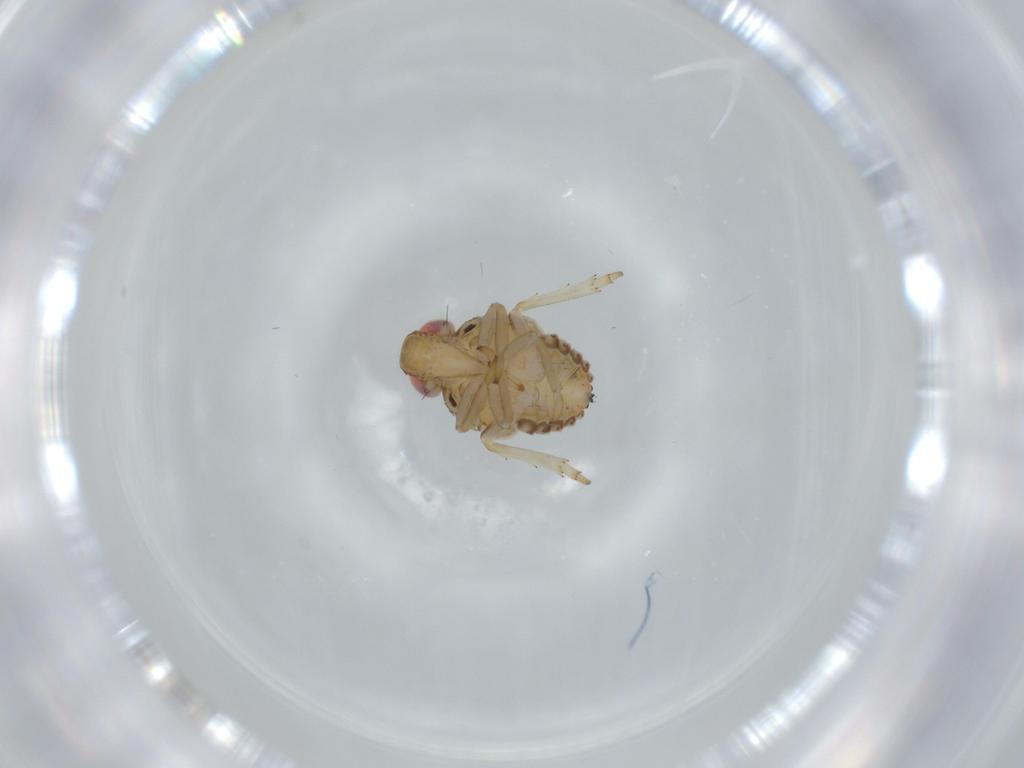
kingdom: Animalia
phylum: Arthropoda
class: Insecta
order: Hemiptera
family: Issidae
